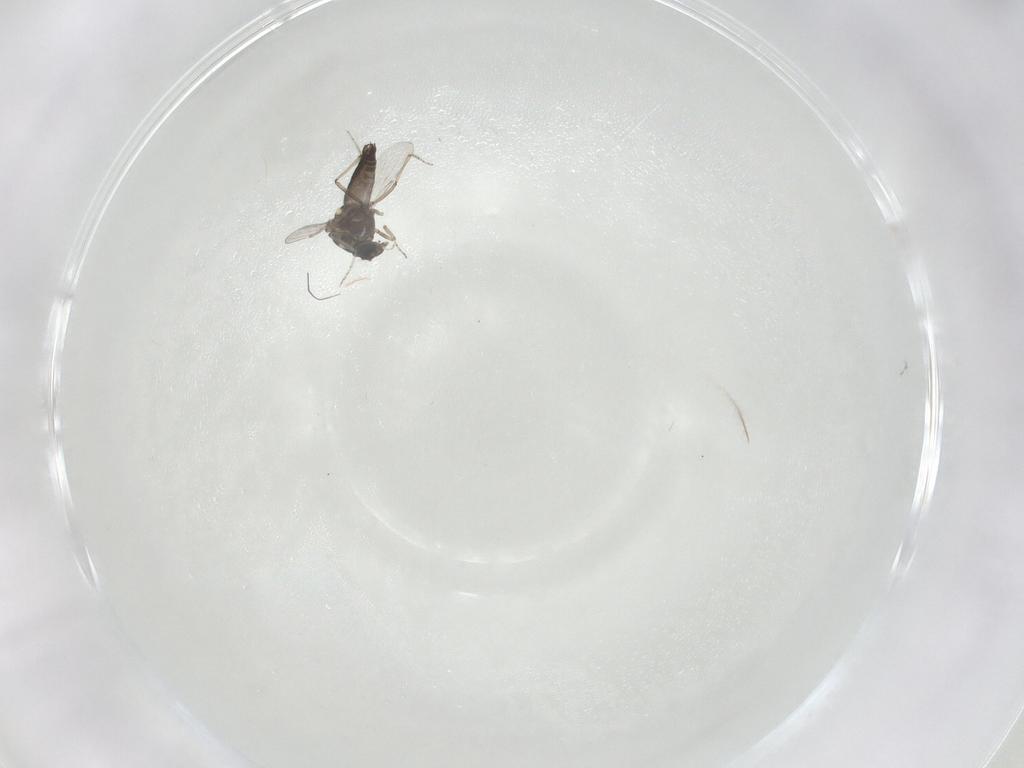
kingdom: Animalia
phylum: Arthropoda
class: Insecta
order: Diptera
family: Ceratopogonidae
